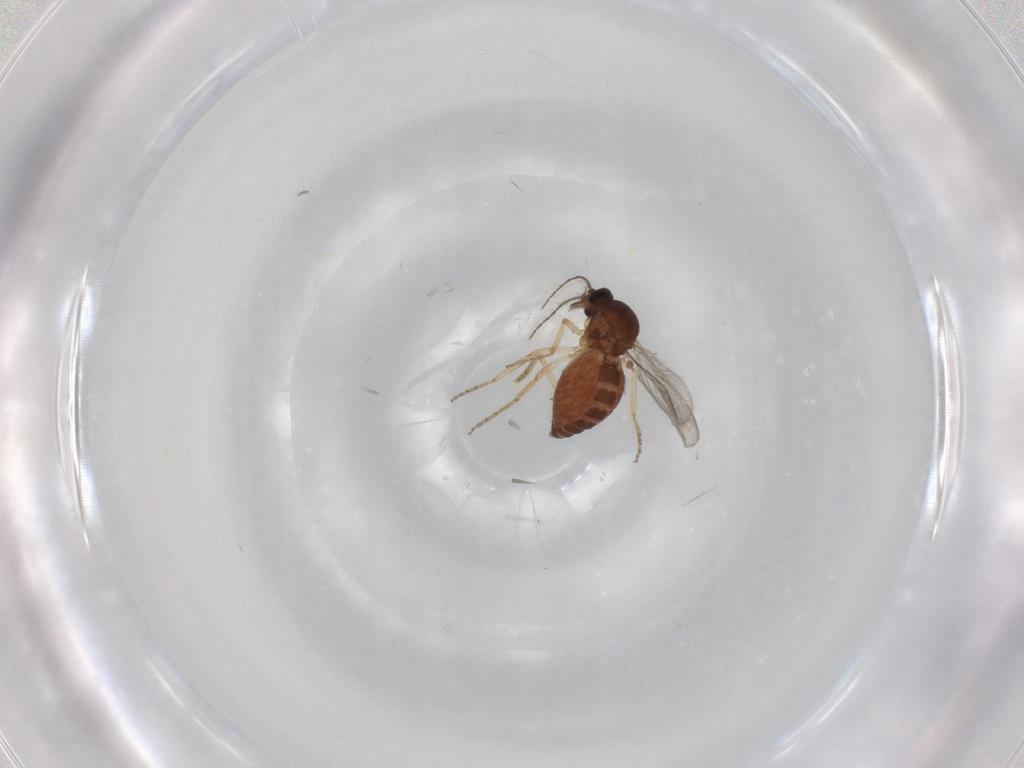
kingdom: Animalia
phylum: Arthropoda
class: Insecta
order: Diptera
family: Ceratopogonidae
